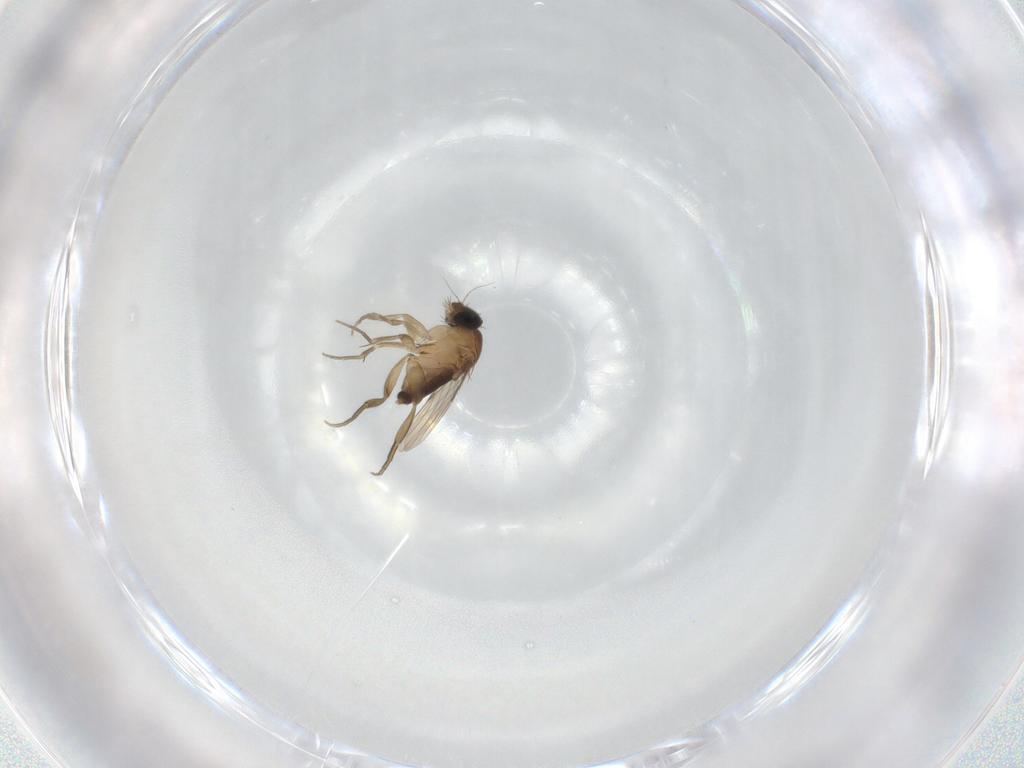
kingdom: Animalia
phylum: Arthropoda
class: Insecta
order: Diptera
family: Phoridae
